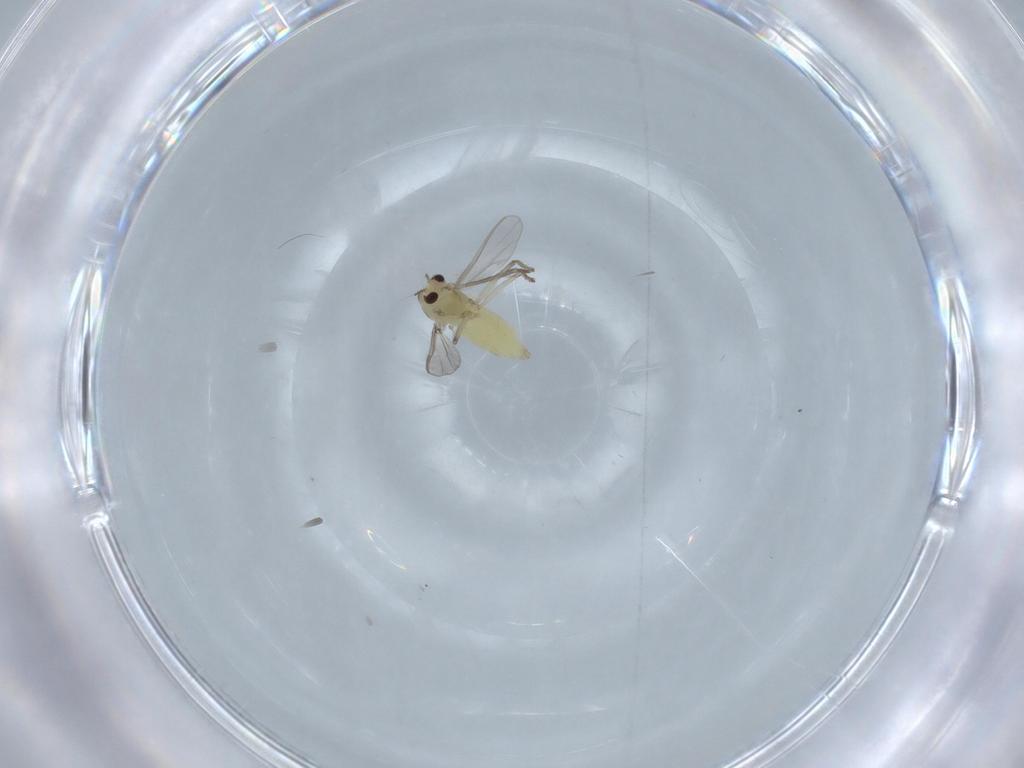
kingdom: Animalia
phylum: Arthropoda
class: Insecta
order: Diptera
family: Chironomidae
